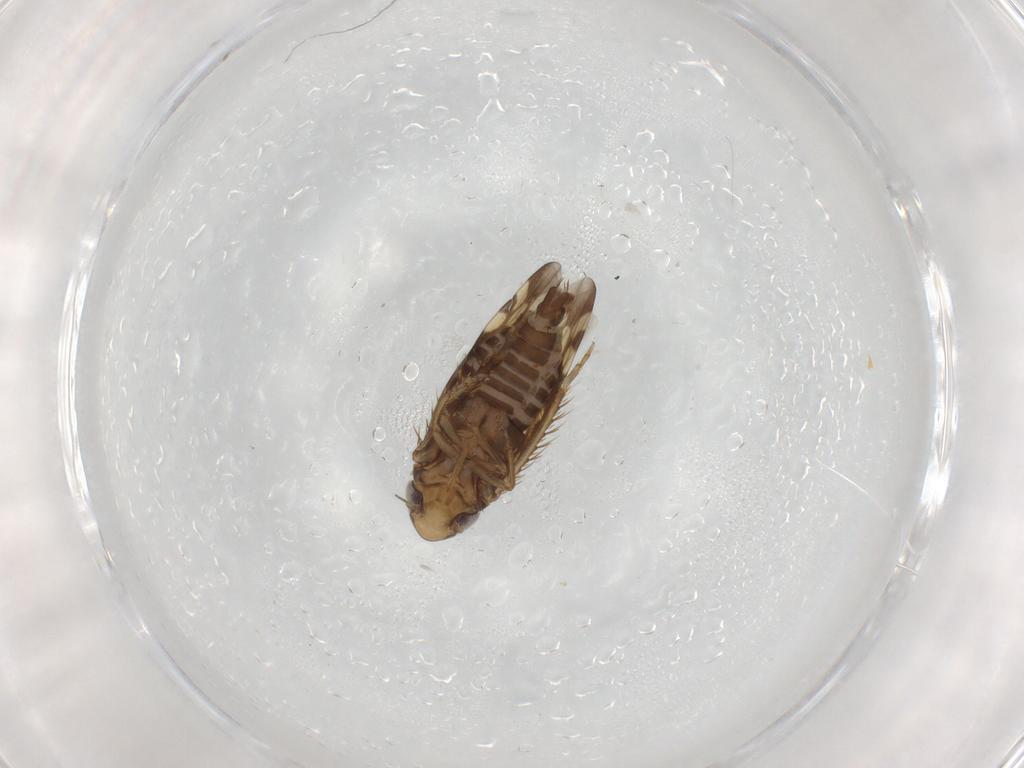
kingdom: Animalia
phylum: Arthropoda
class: Insecta
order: Hemiptera
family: Cicadellidae
